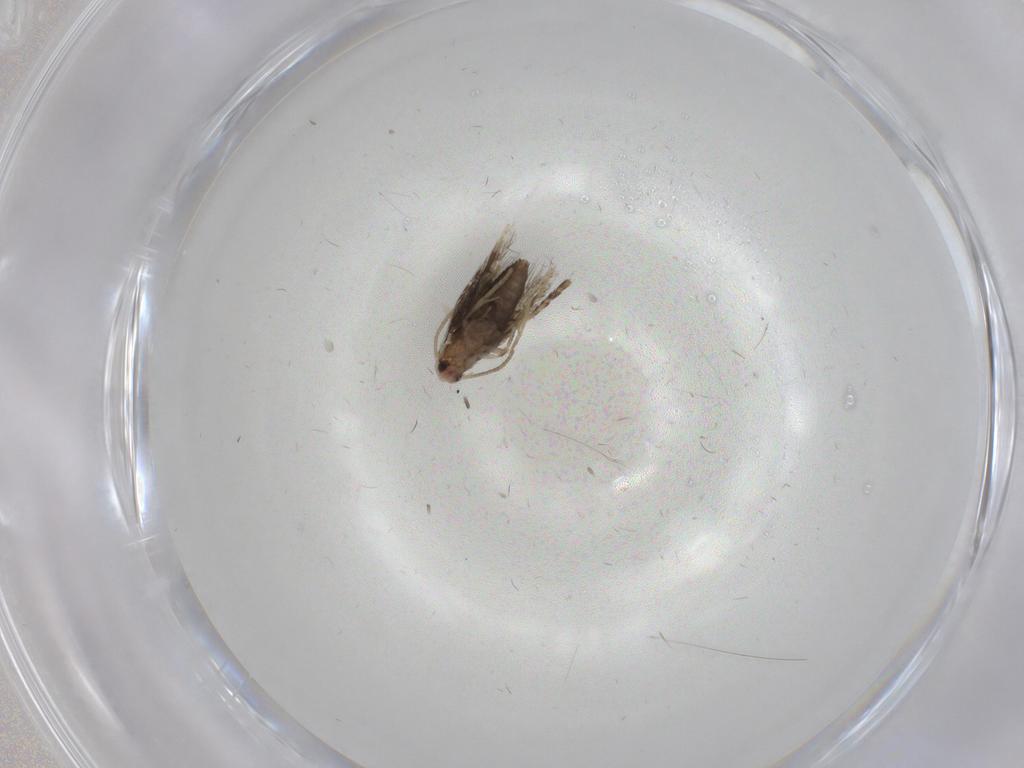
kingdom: Animalia
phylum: Arthropoda
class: Insecta
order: Lepidoptera
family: Nepticulidae
